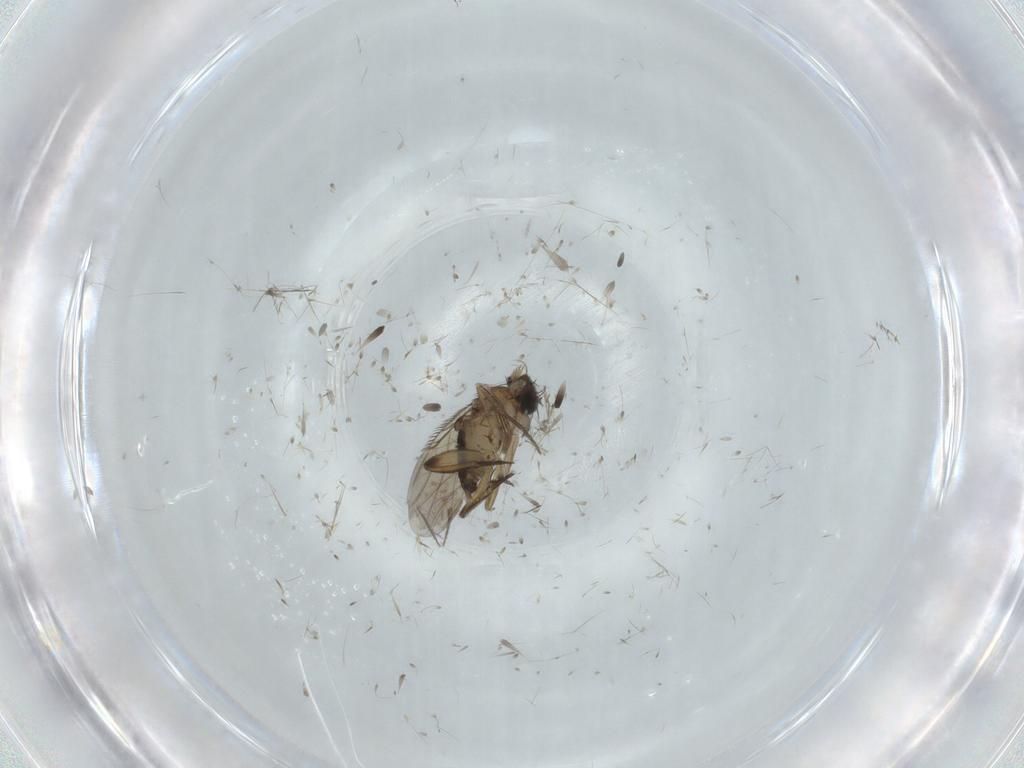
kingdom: Animalia
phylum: Arthropoda
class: Insecta
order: Diptera
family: Phoridae
